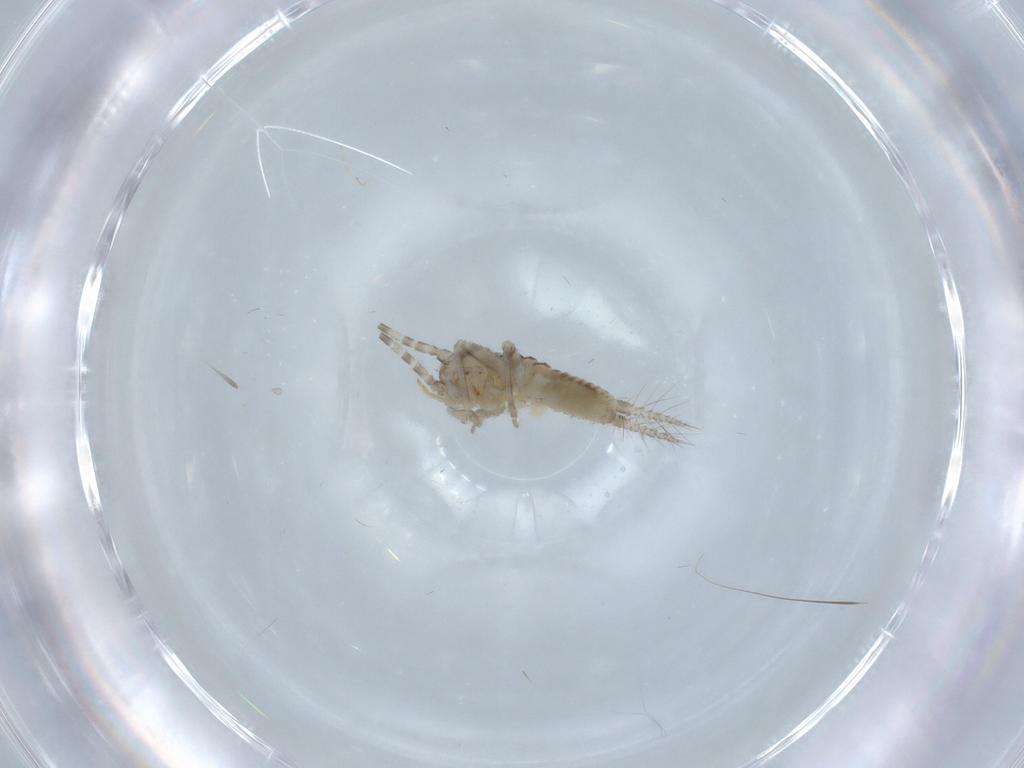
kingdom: Animalia
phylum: Arthropoda
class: Insecta
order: Orthoptera
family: Trigonidiidae
